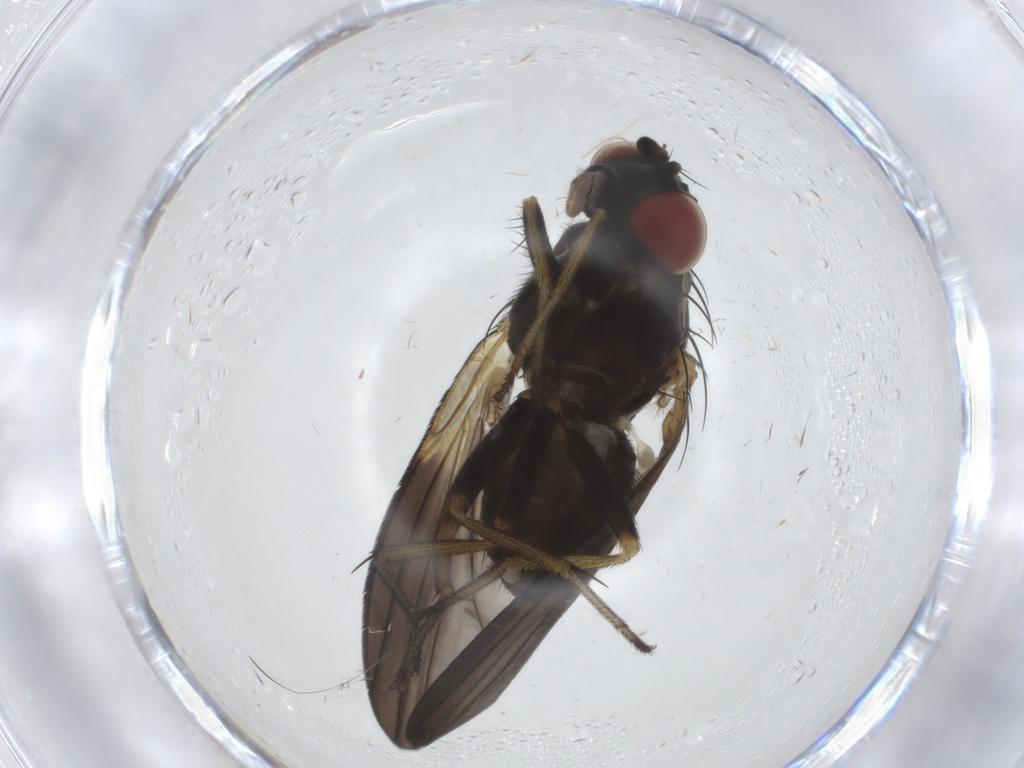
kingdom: Animalia
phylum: Arthropoda
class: Insecta
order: Diptera
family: Chironomidae
